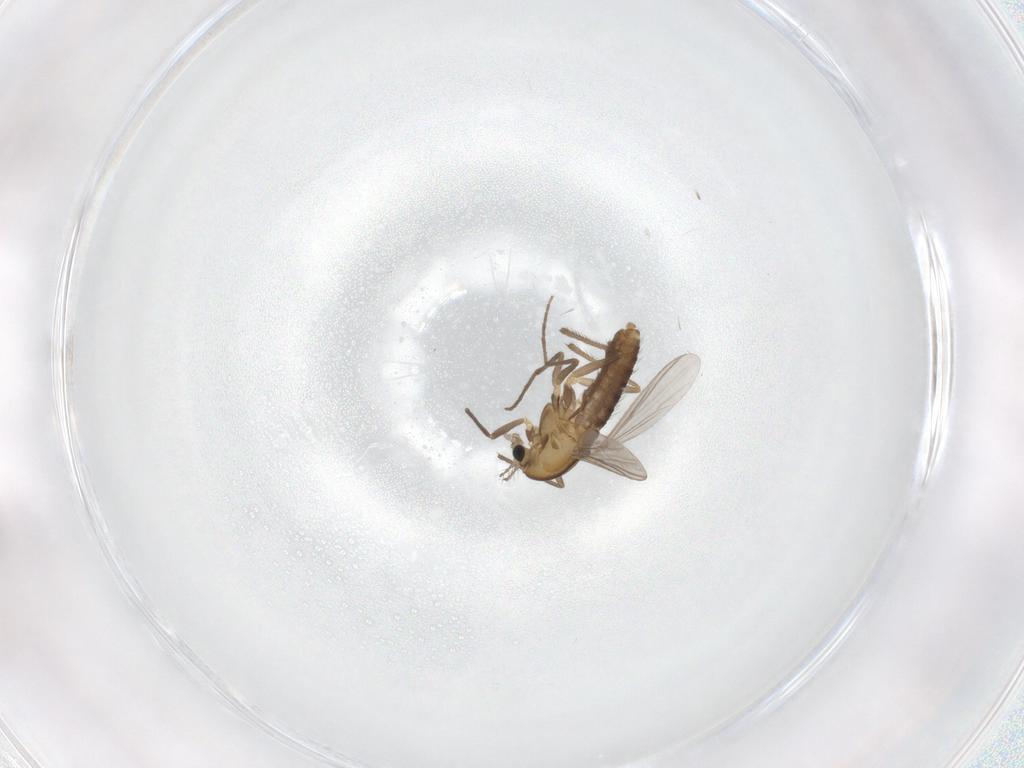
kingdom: Animalia
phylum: Arthropoda
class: Insecta
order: Diptera
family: Chironomidae
